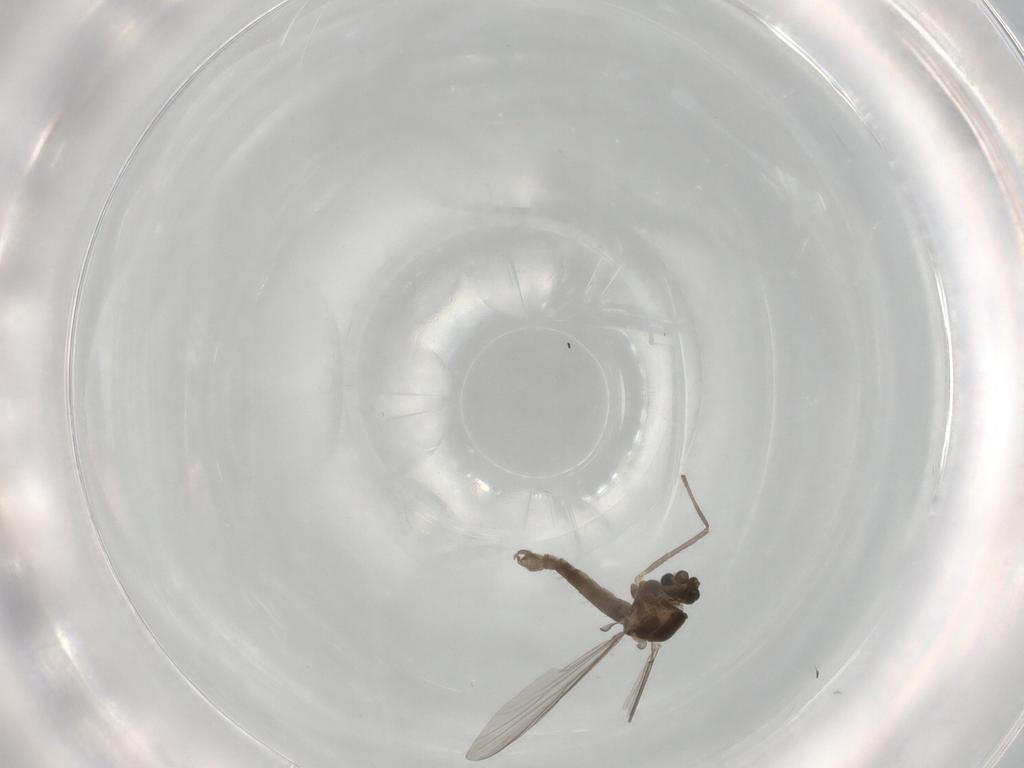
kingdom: Animalia
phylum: Arthropoda
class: Insecta
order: Diptera
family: Chironomidae
